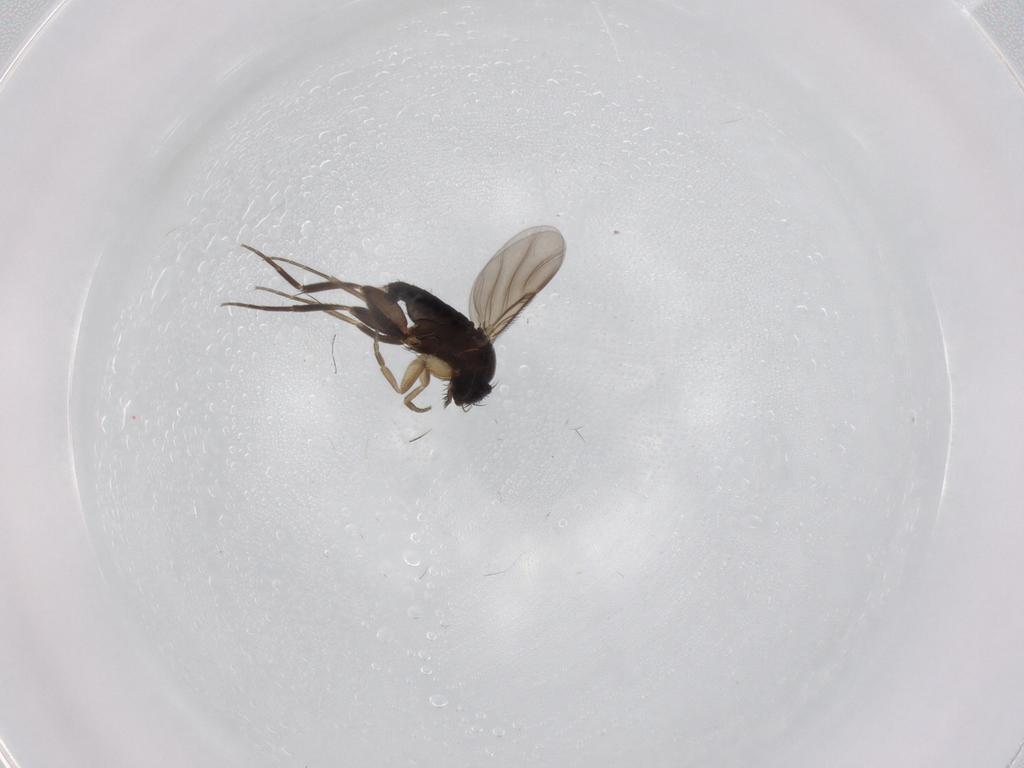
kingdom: Animalia
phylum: Arthropoda
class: Insecta
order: Diptera
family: Phoridae
